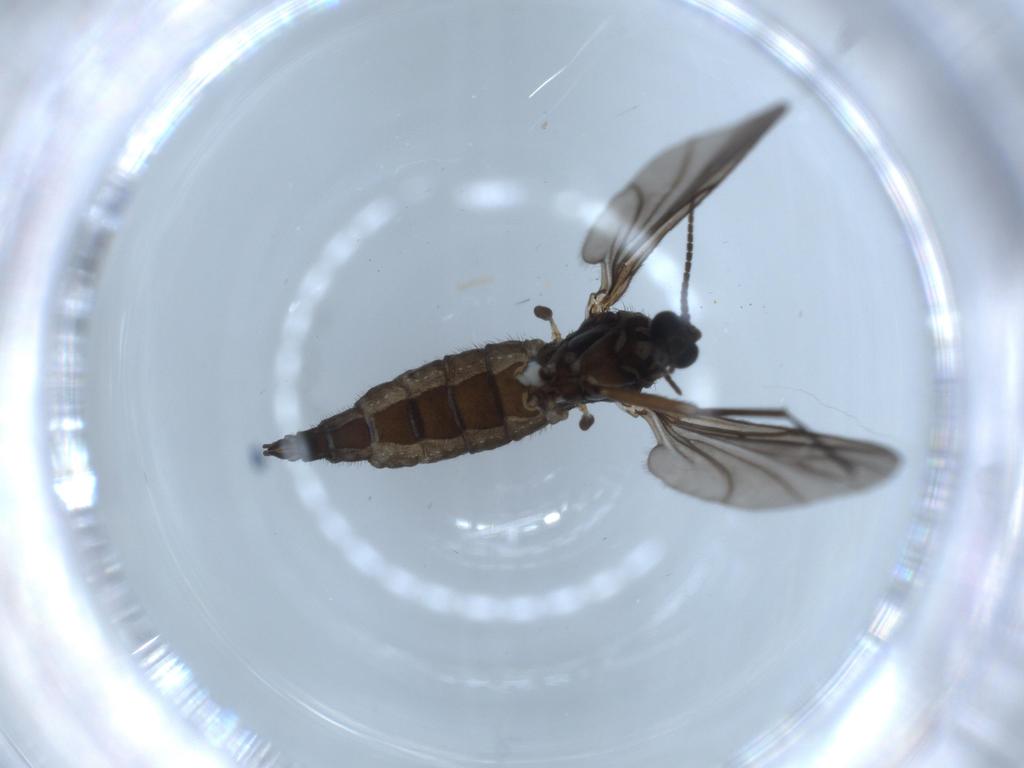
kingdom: Animalia
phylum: Arthropoda
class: Insecta
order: Diptera
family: Sciaridae
